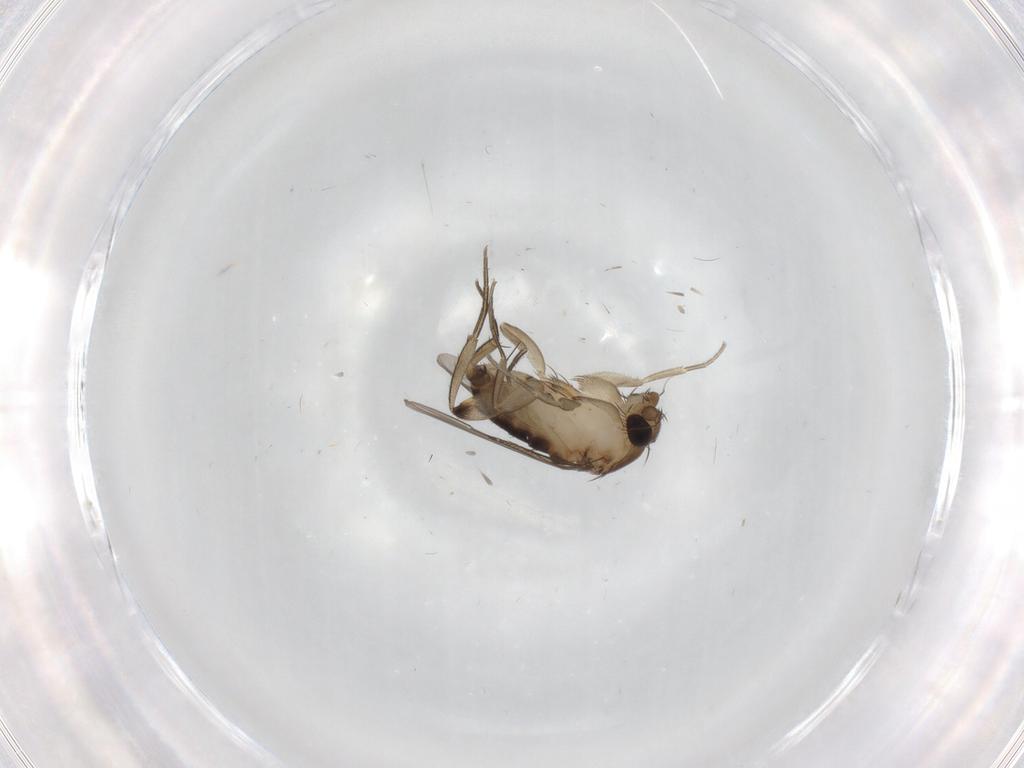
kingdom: Animalia
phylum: Arthropoda
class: Insecta
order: Diptera
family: Phoridae
